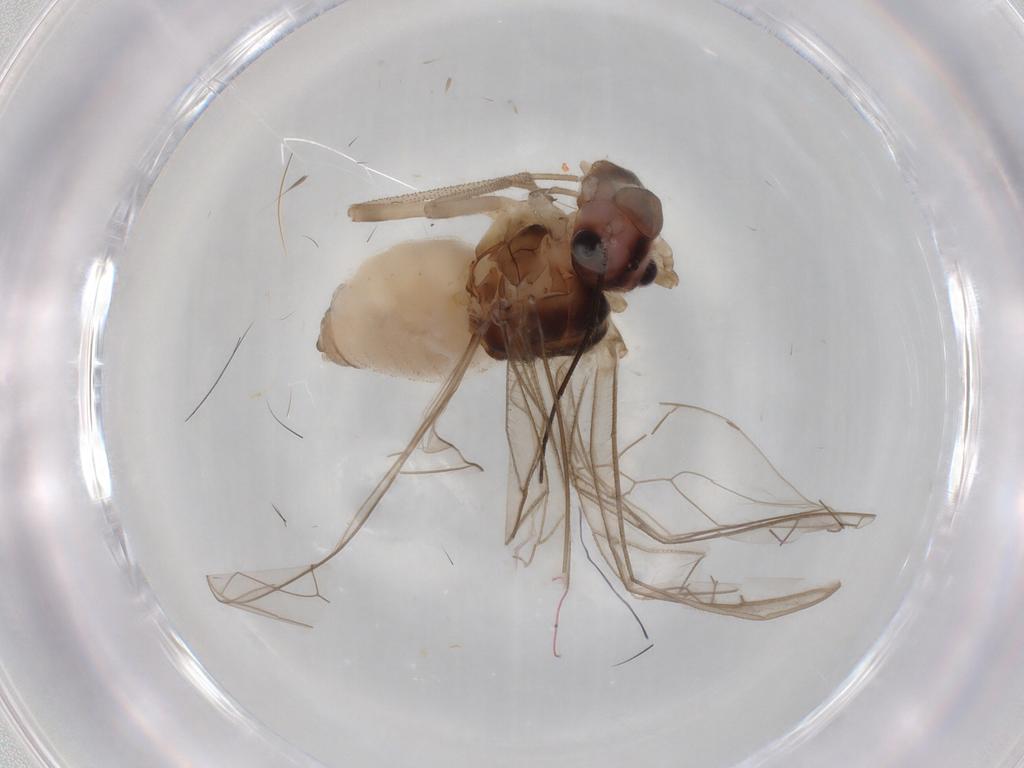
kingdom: Animalia
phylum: Arthropoda
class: Insecta
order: Psocodea
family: Stenopsocidae
